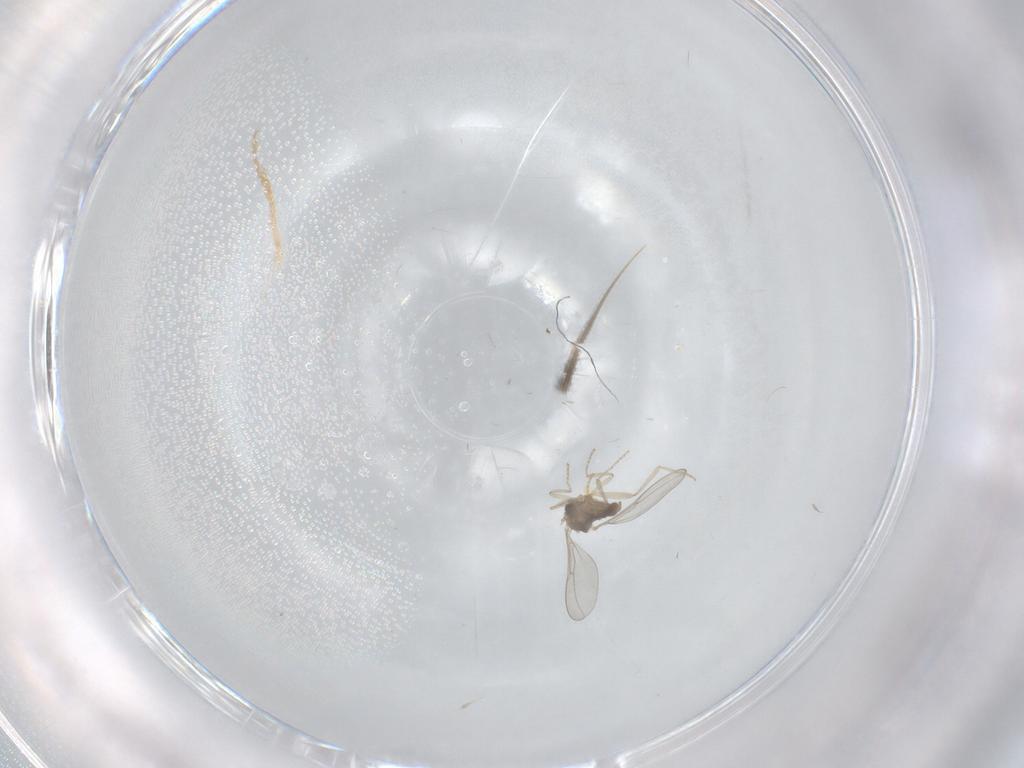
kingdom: Animalia
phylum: Arthropoda
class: Insecta
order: Diptera
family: Cecidomyiidae
